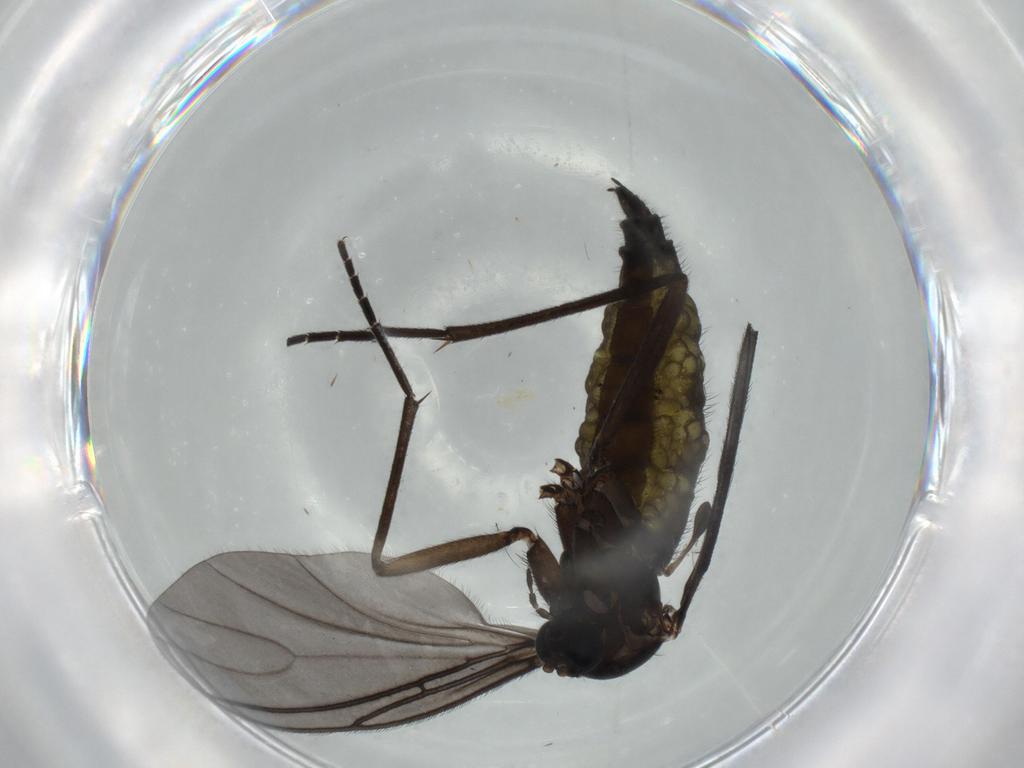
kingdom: Animalia
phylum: Arthropoda
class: Insecta
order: Diptera
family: Sciaridae
